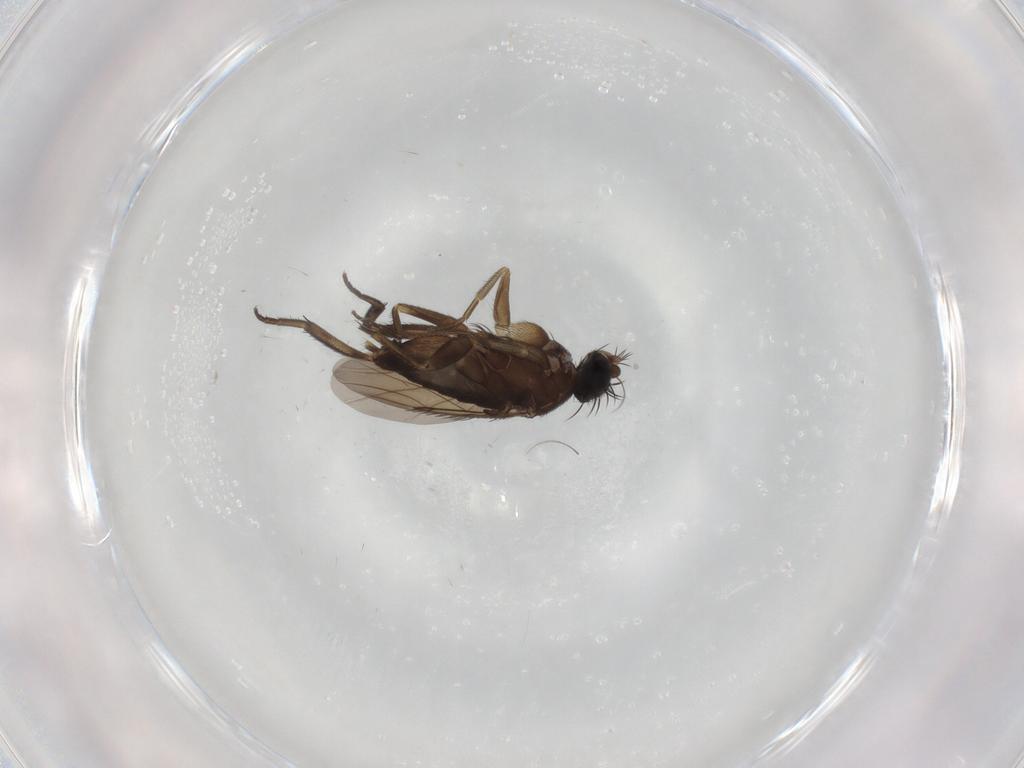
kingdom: Animalia
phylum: Arthropoda
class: Insecta
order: Diptera
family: Phoridae
